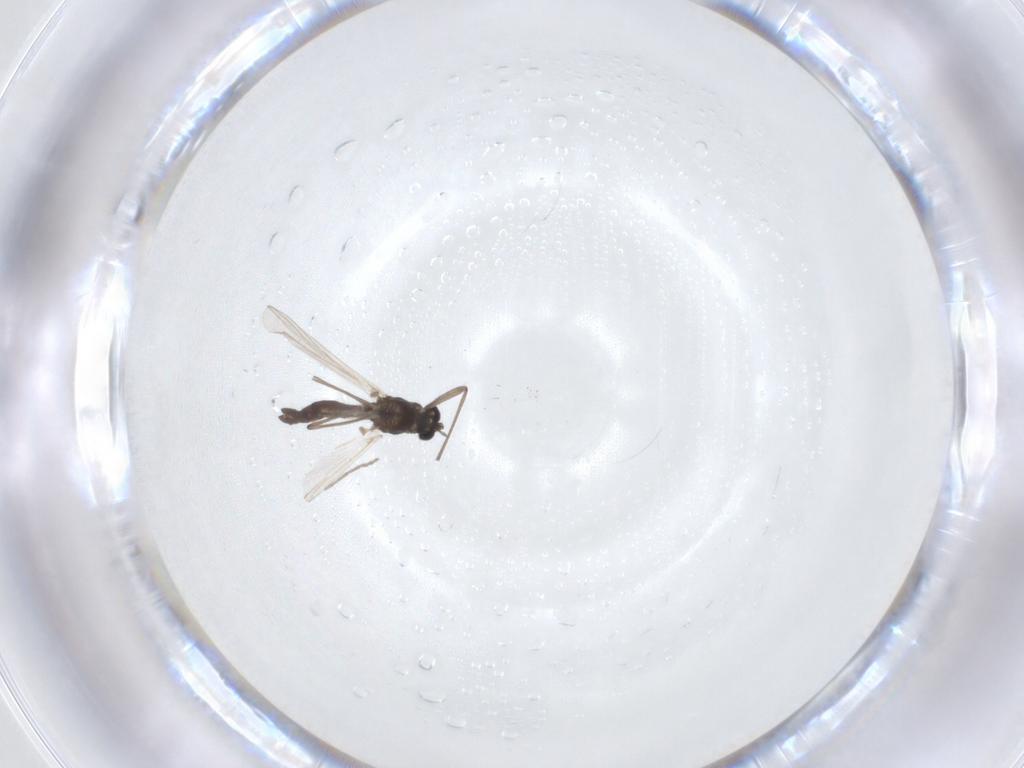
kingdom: Animalia
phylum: Arthropoda
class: Insecta
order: Diptera
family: Chironomidae
